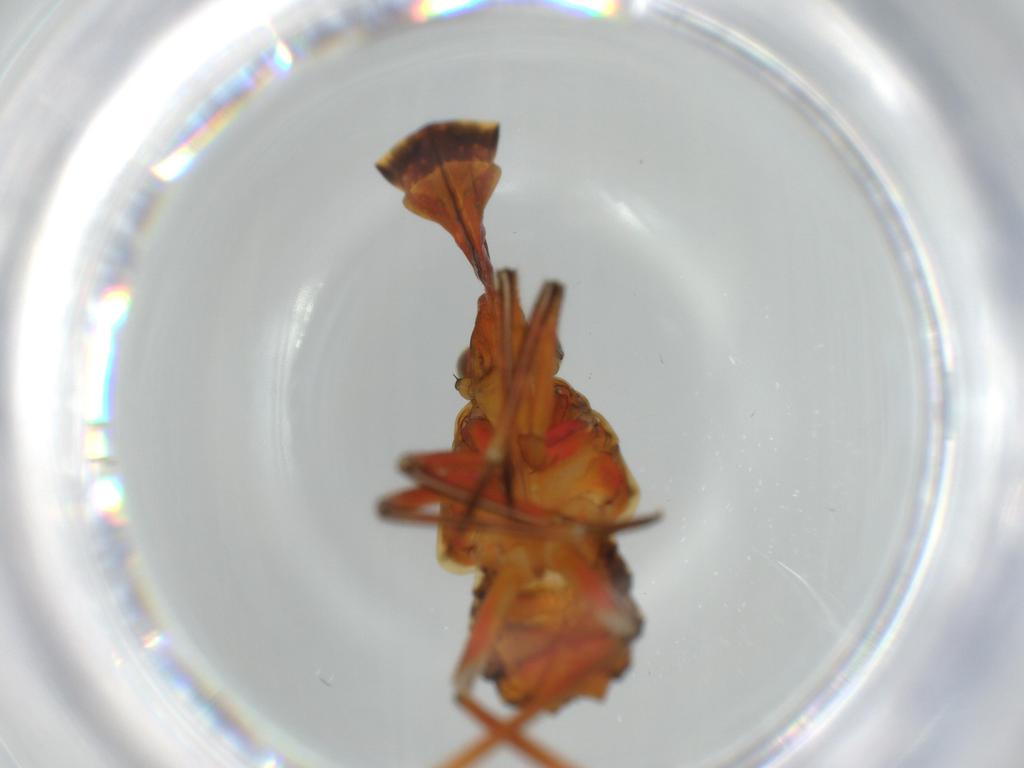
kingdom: Animalia
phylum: Arthropoda
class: Insecta
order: Hemiptera
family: Fulgoridae
